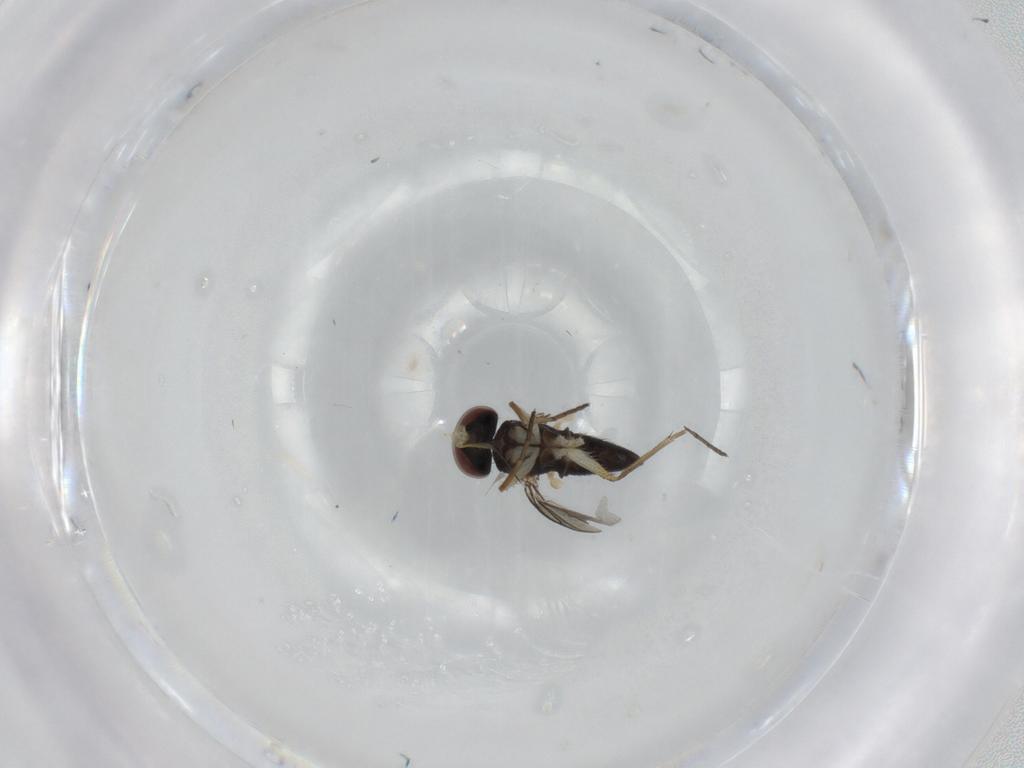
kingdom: Animalia
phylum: Arthropoda
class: Insecta
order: Diptera
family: Dolichopodidae
